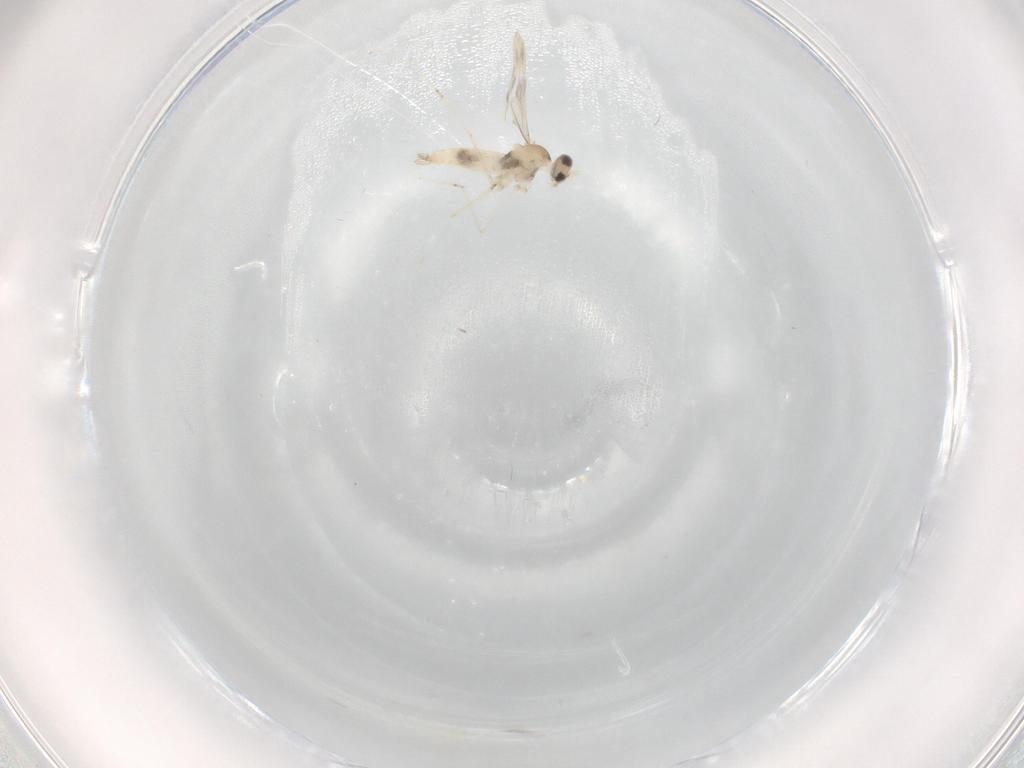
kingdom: Animalia
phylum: Arthropoda
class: Insecta
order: Diptera
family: Cecidomyiidae
